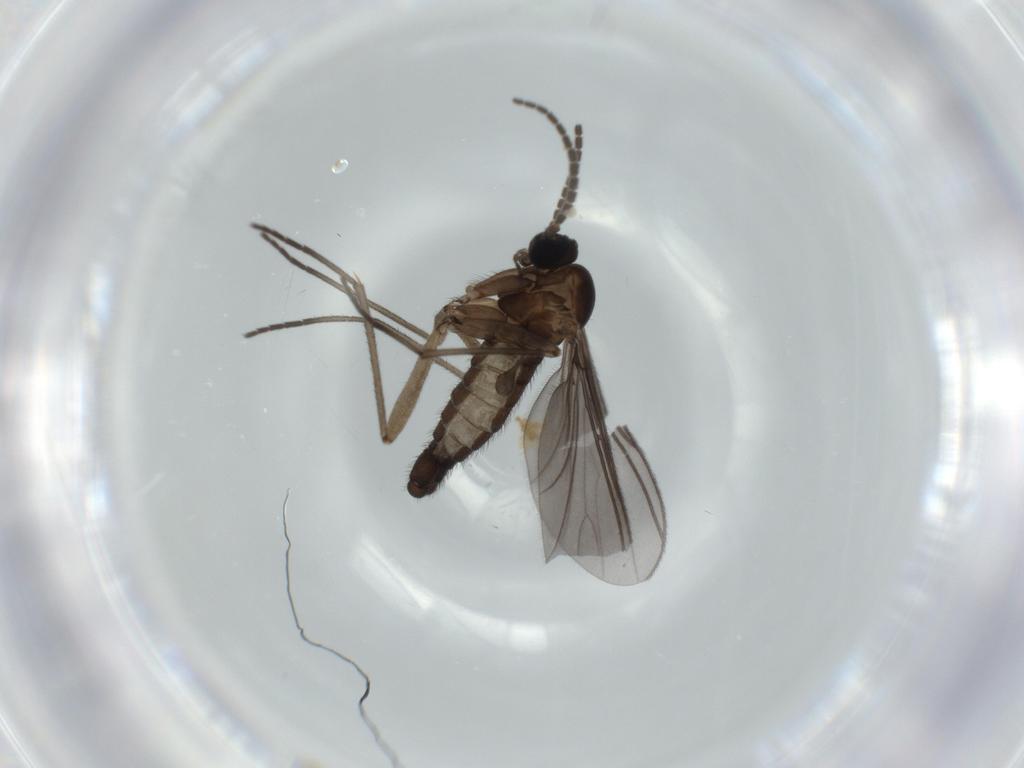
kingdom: Animalia
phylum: Arthropoda
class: Insecta
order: Diptera
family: Sciaridae
